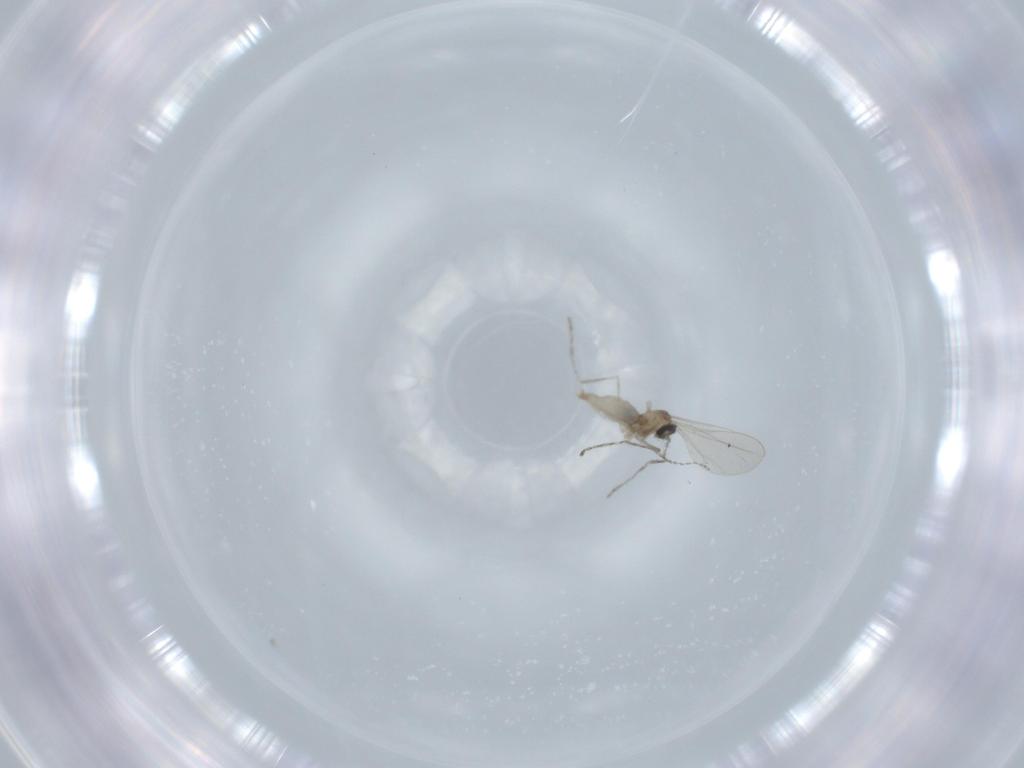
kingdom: Animalia
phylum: Arthropoda
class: Insecta
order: Diptera
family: Cecidomyiidae
